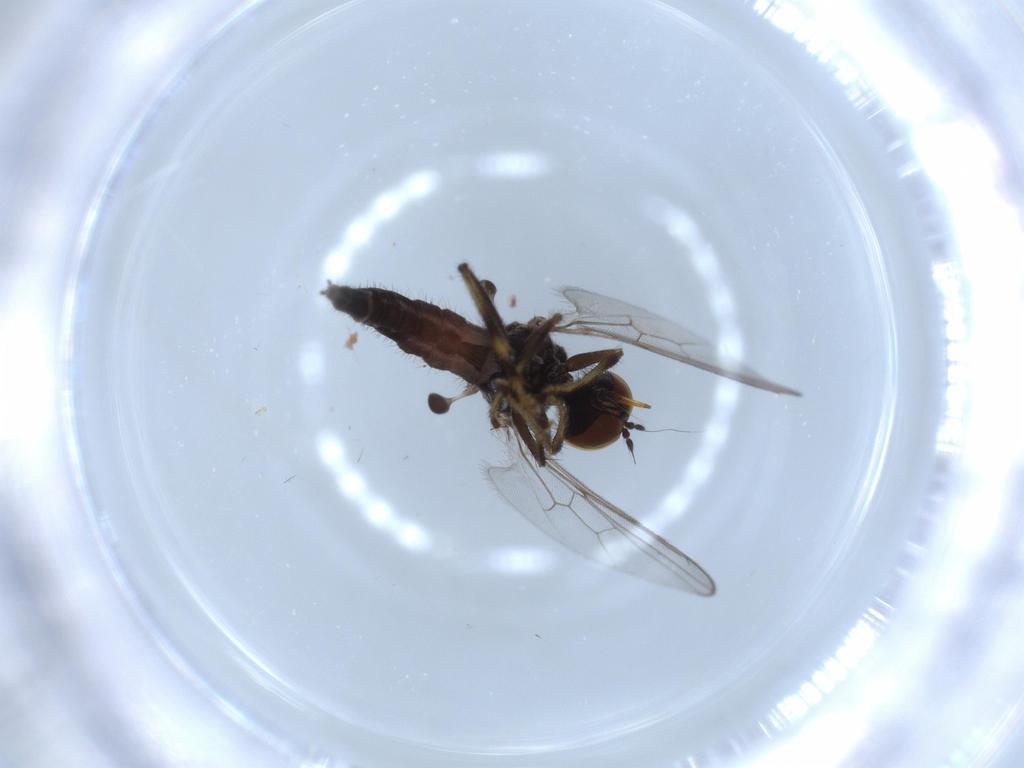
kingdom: Animalia
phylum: Arthropoda
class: Insecta
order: Diptera
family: Hybotidae
